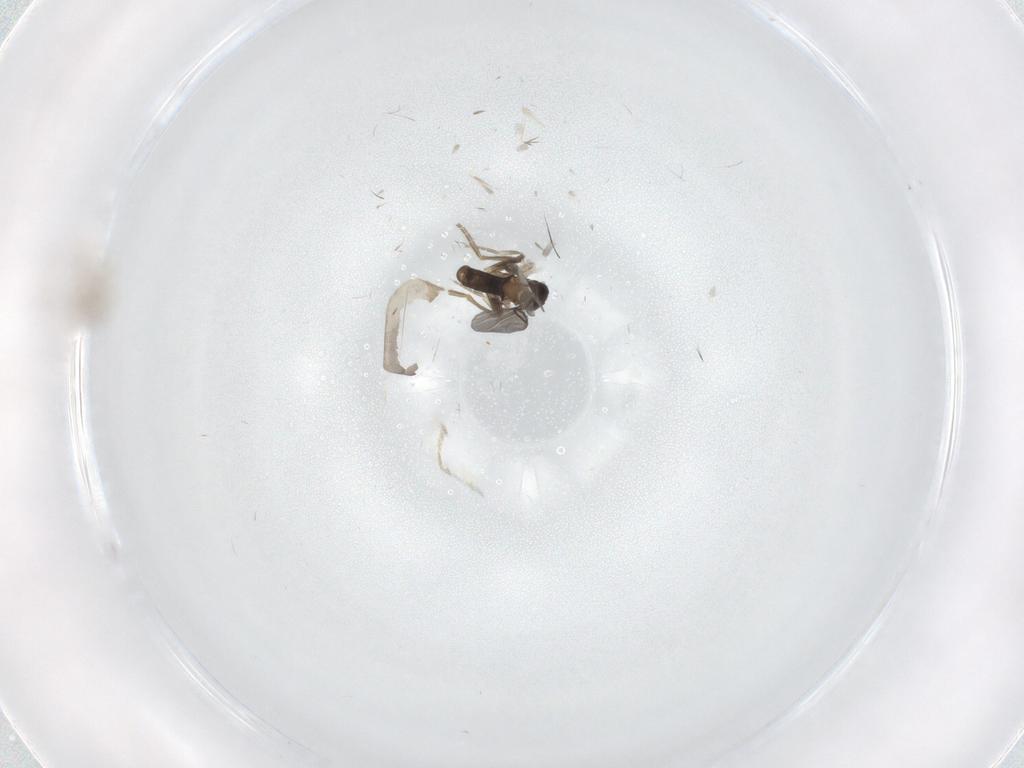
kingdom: Animalia
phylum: Arthropoda
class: Insecta
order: Diptera
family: Cecidomyiidae
